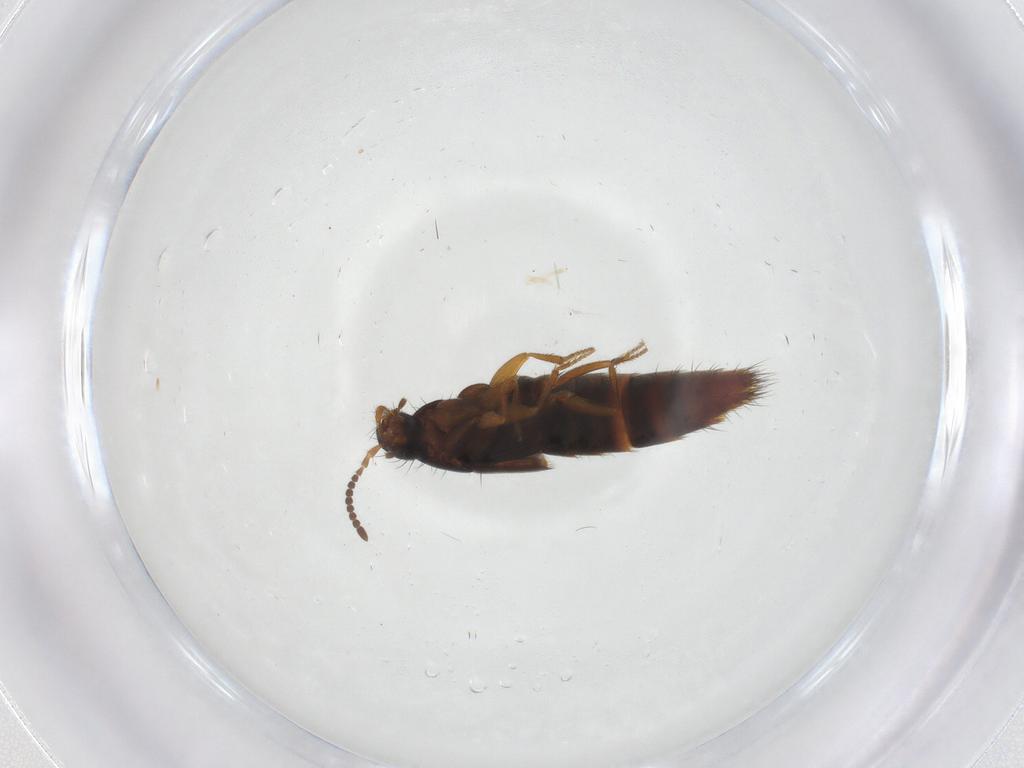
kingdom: Animalia
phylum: Arthropoda
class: Insecta
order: Coleoptera
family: Staphylinidae
